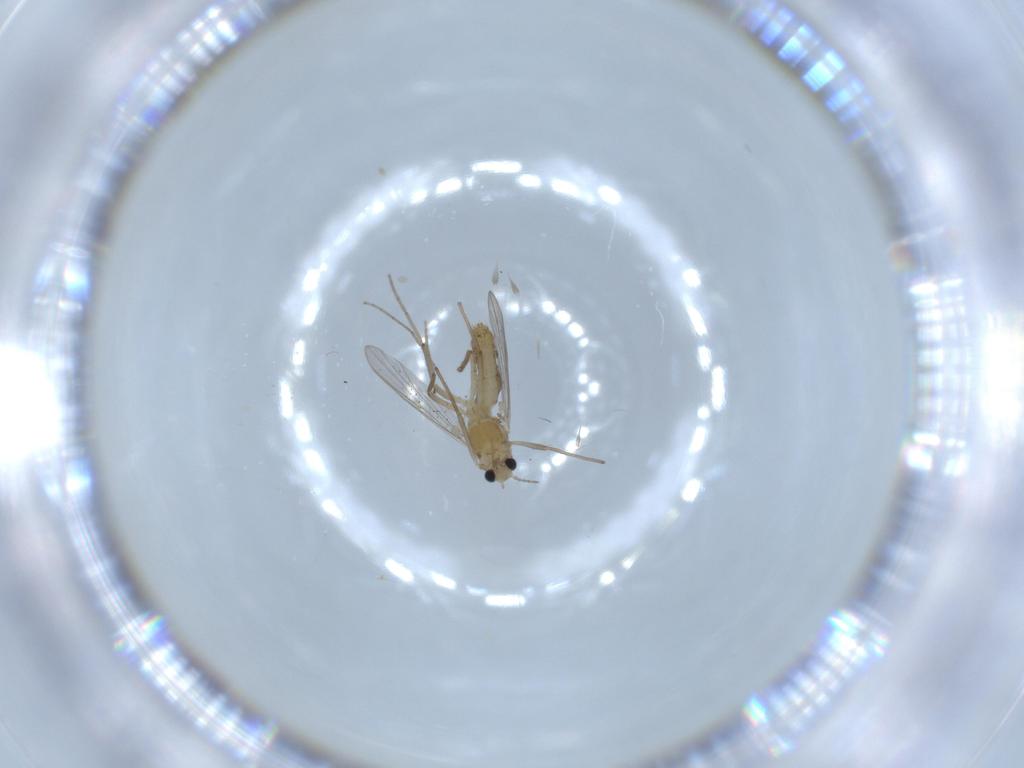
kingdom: Animalia
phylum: Arthropoda
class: Insecta
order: Diptera
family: Chironomidae
